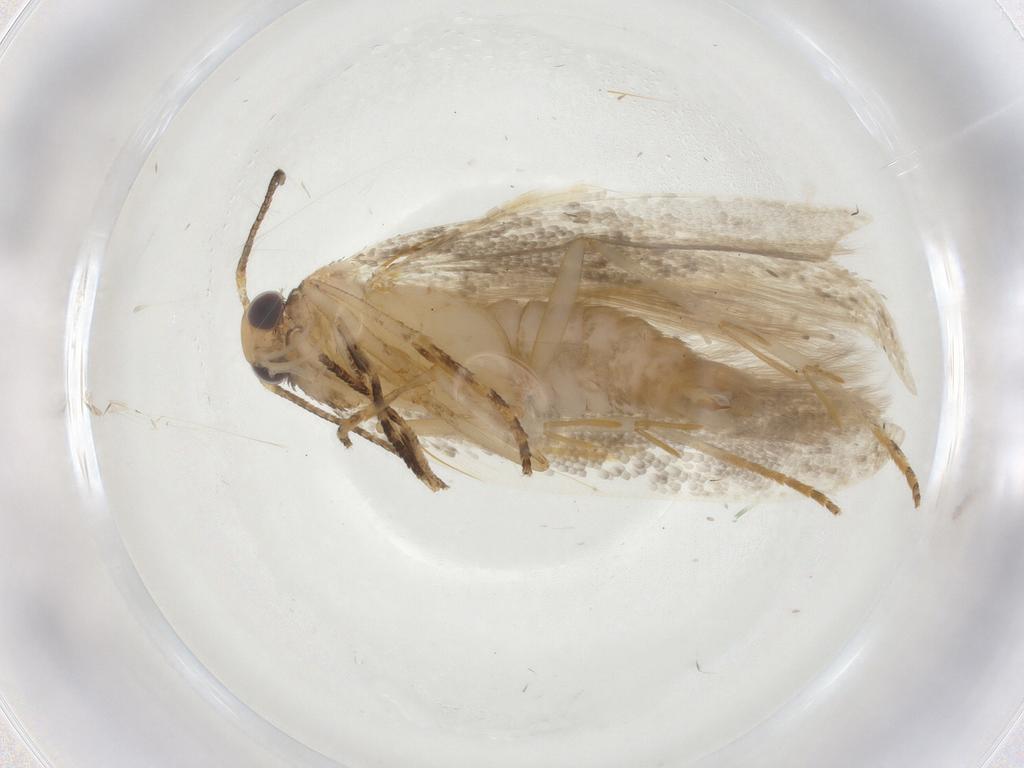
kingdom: Animalia
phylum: Arthropoda
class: Insecta
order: Lepidoptera
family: Gelechiidae
